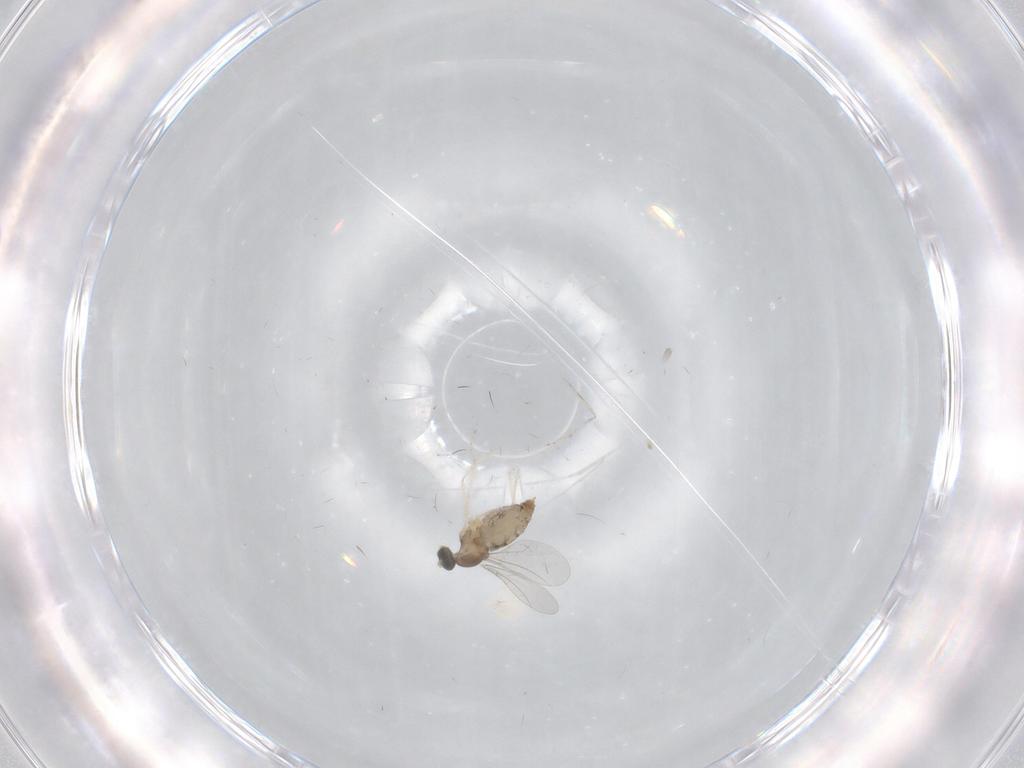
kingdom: Animalia
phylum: Arthropoda
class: Insecta
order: Diptera
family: Cecidomyiidae
